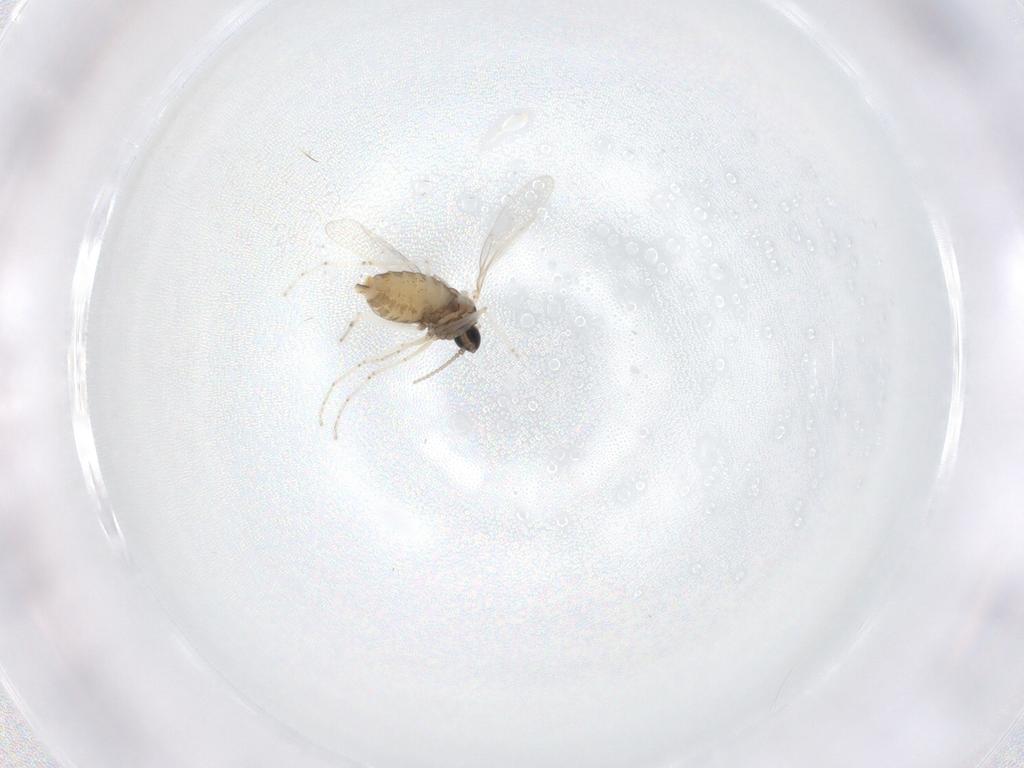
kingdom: Animalia
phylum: Arthropoda
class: Insecta
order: Diptera
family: Cecidomyiidae
